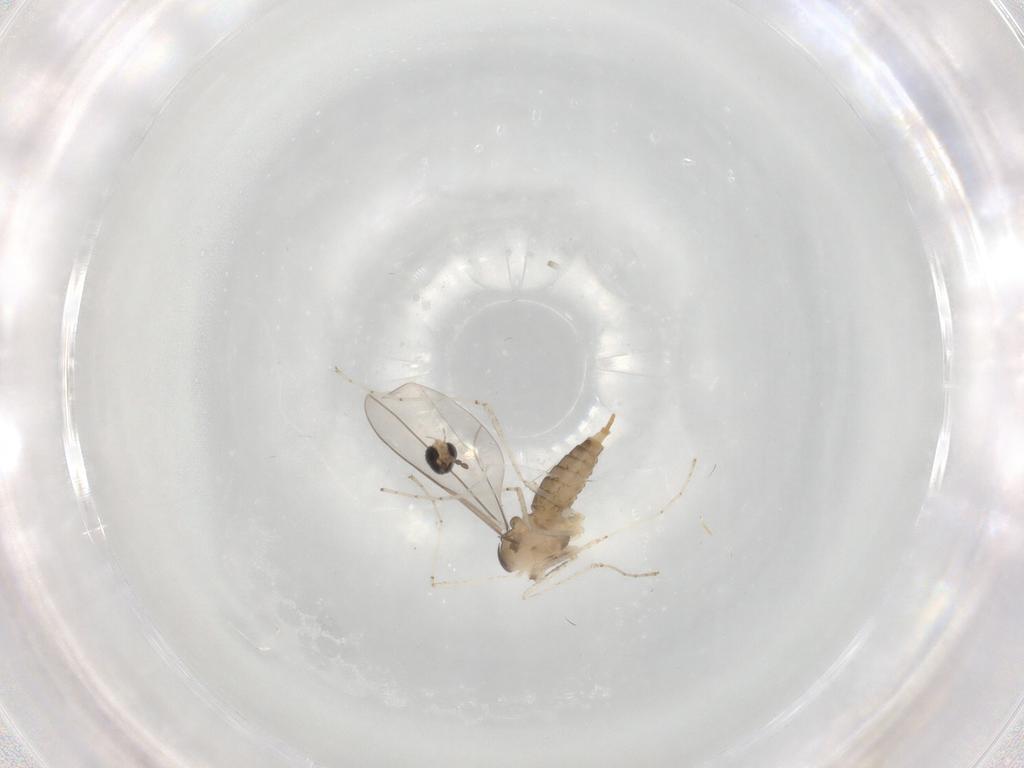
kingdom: Animalia
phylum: Arthropoda
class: Insecta
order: Diptera
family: Cecidomyiidae
